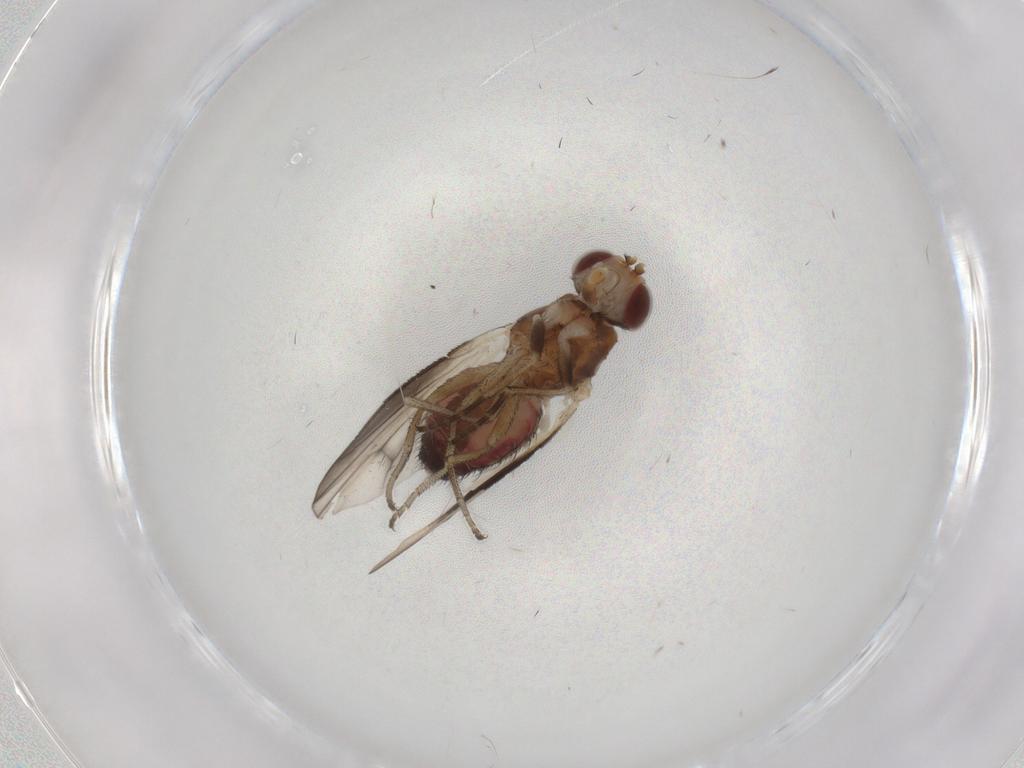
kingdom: Animalia
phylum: Arthropoda
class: Insecta
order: Diptera
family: Heleomyzidae
